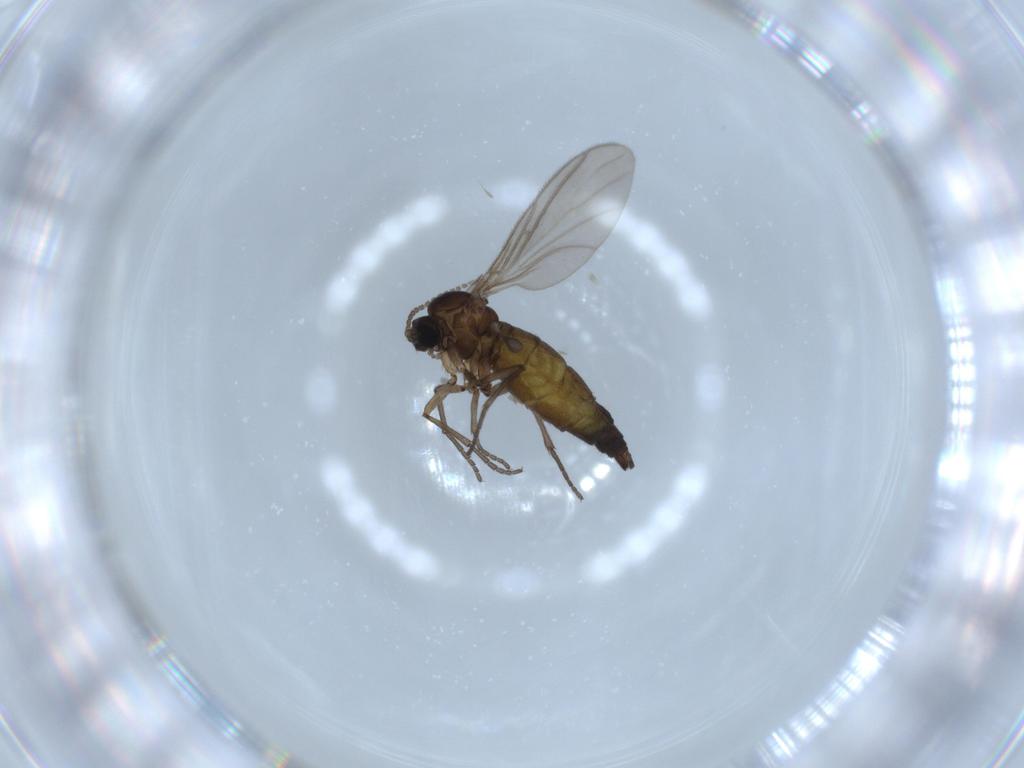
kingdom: Animalia
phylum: Arthropoda
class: Insecta
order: Diptera
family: Sciaridae
